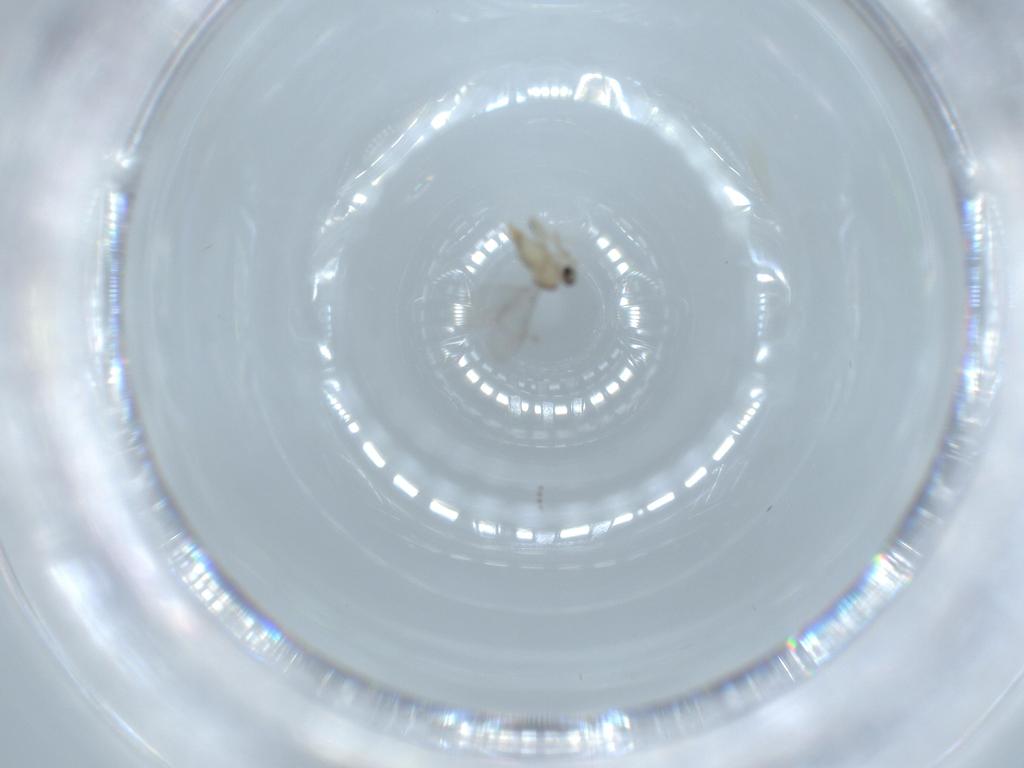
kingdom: Animalia
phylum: Arthropoda
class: Insecta
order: Diptera
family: Cecidomyiidae
